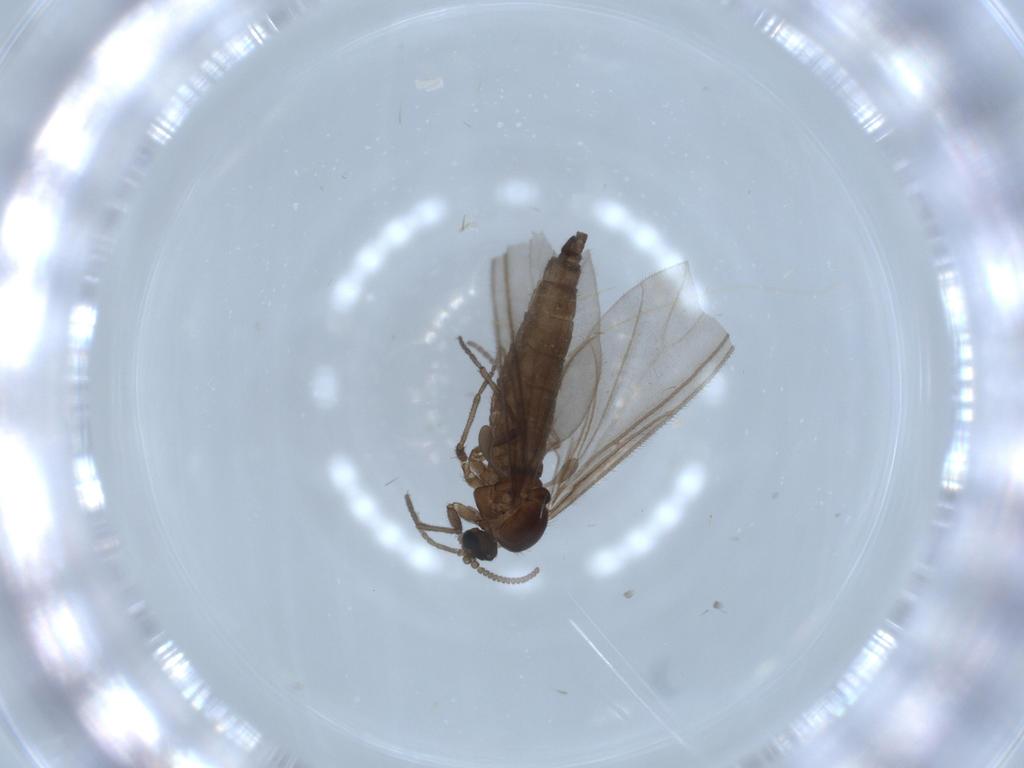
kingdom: Animalia
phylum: Arthropoda
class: Insecta
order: Diptera
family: Sciaridae
